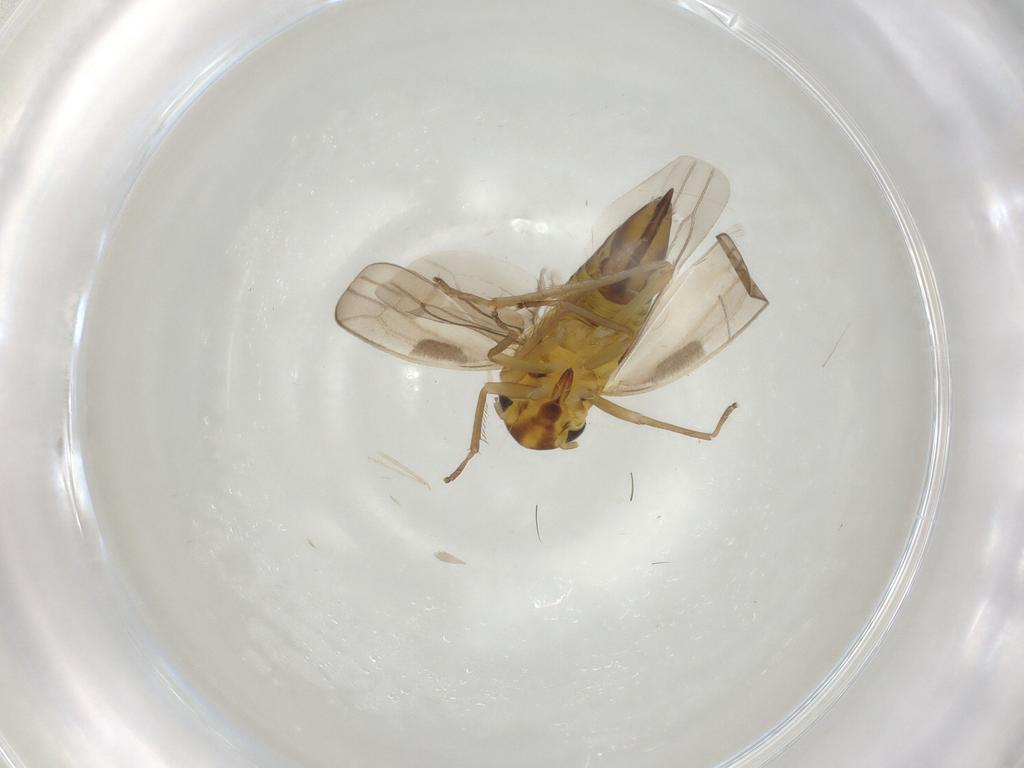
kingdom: Animalia
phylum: Arthropoda
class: Insecta
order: Hemiptera
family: Cicadellidae
